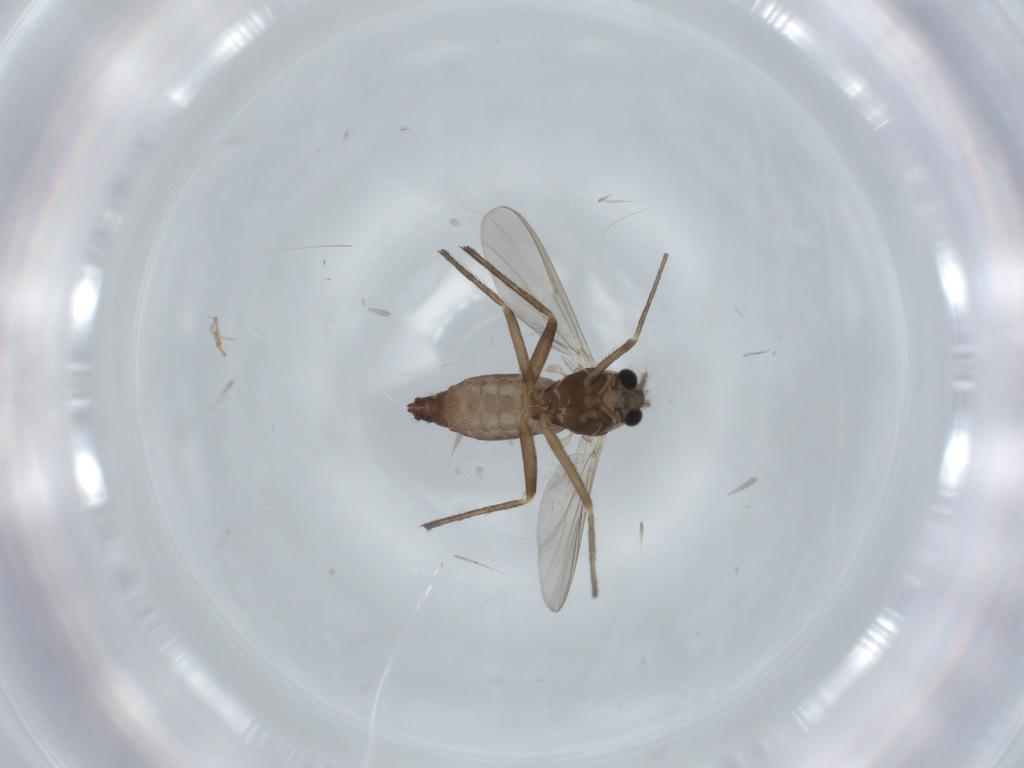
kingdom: Animalia
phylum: Arthropoda
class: Insecta
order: Diptera
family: Chironomidae
